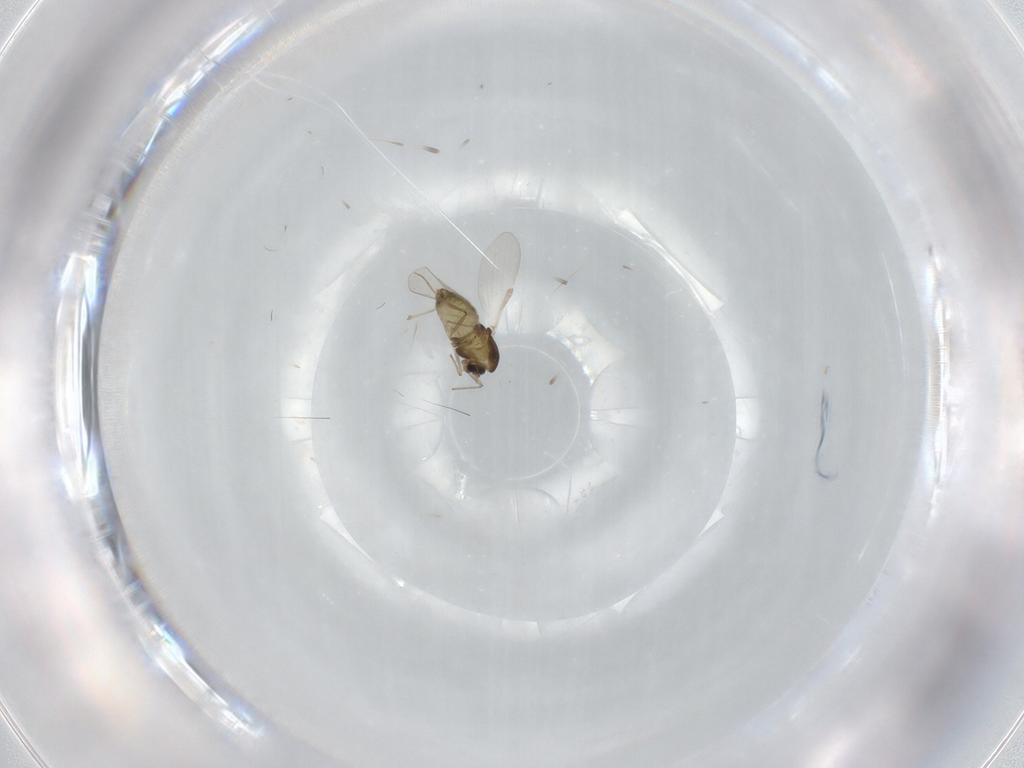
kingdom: Animalia
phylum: Arthropoda
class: Insecta
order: Diptera
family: Chironomidae
